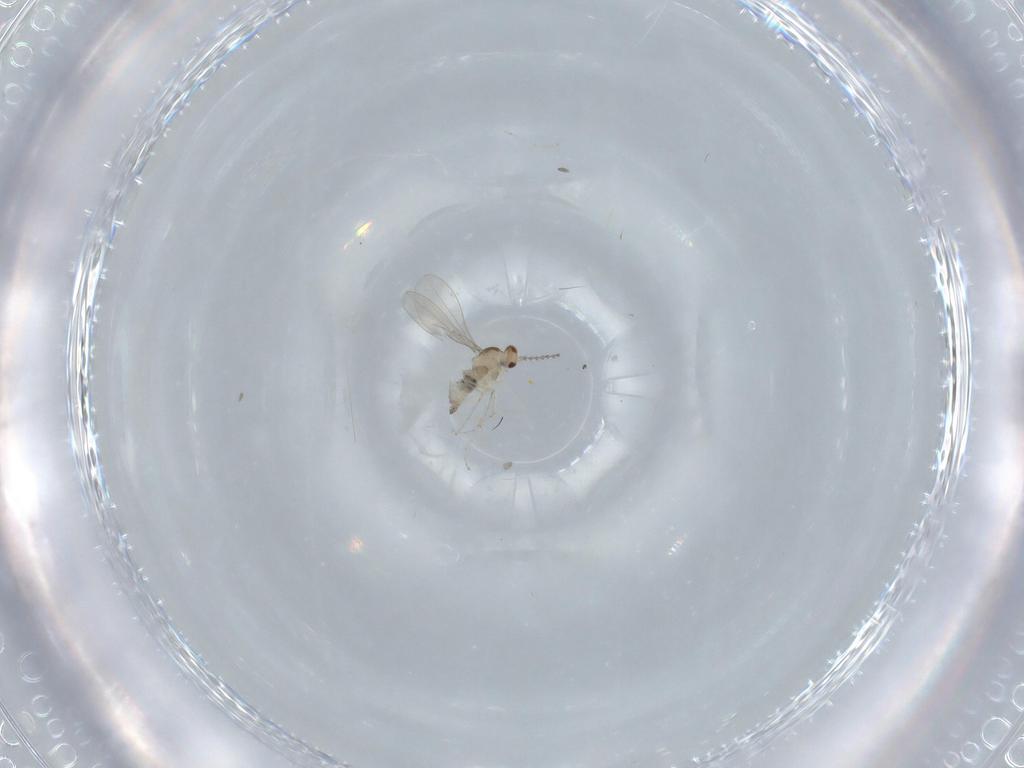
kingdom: Animalia
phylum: Arthropoda
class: Insecta
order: Diptera
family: Cecidomyiidae
